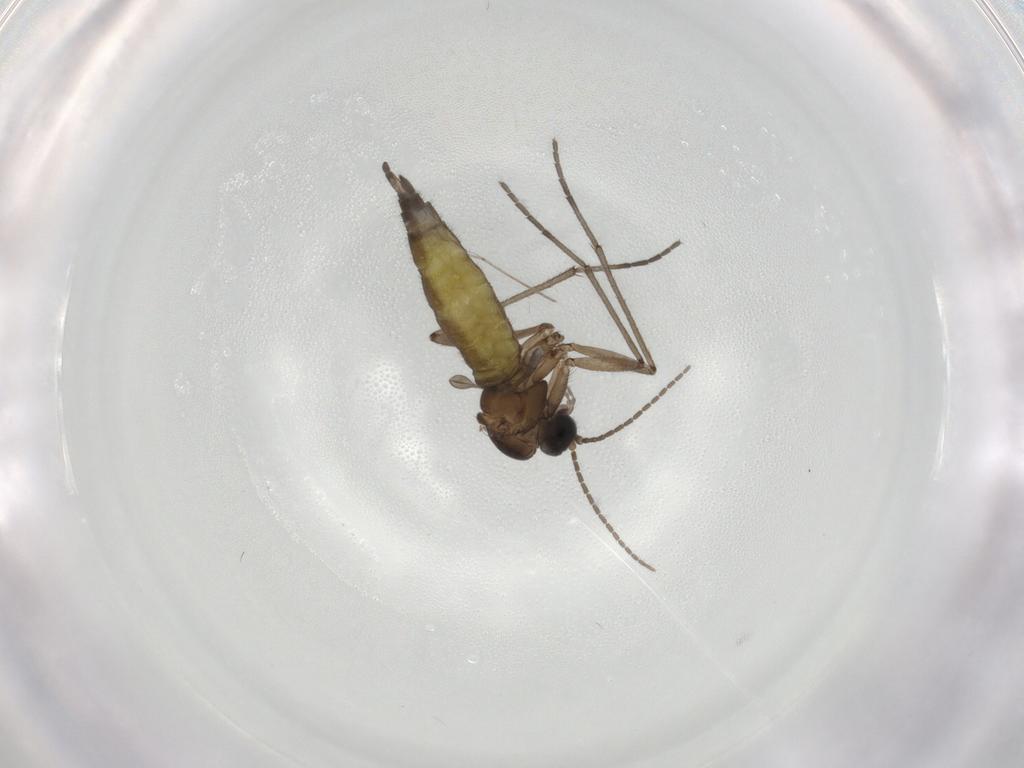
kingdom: Animalia
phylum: Arthropoda
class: Insecta
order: Diptera
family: Sciaridae
